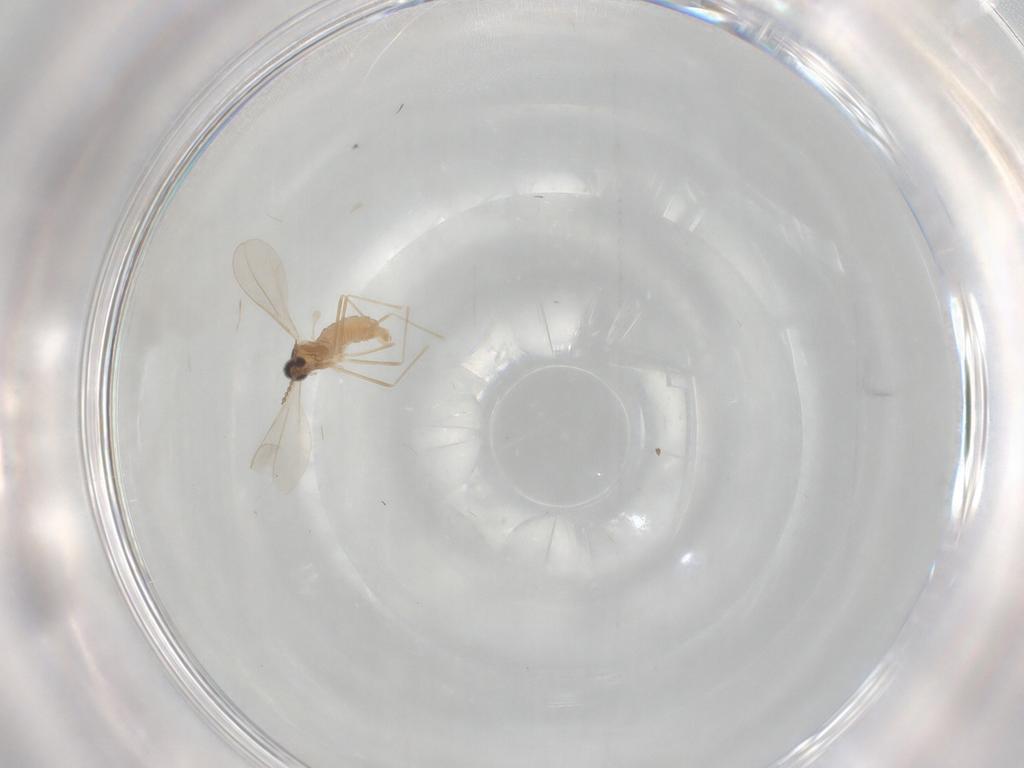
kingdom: Animalia
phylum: Arthropoda
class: Insecta
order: Diptera
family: Cecidomyiidae
